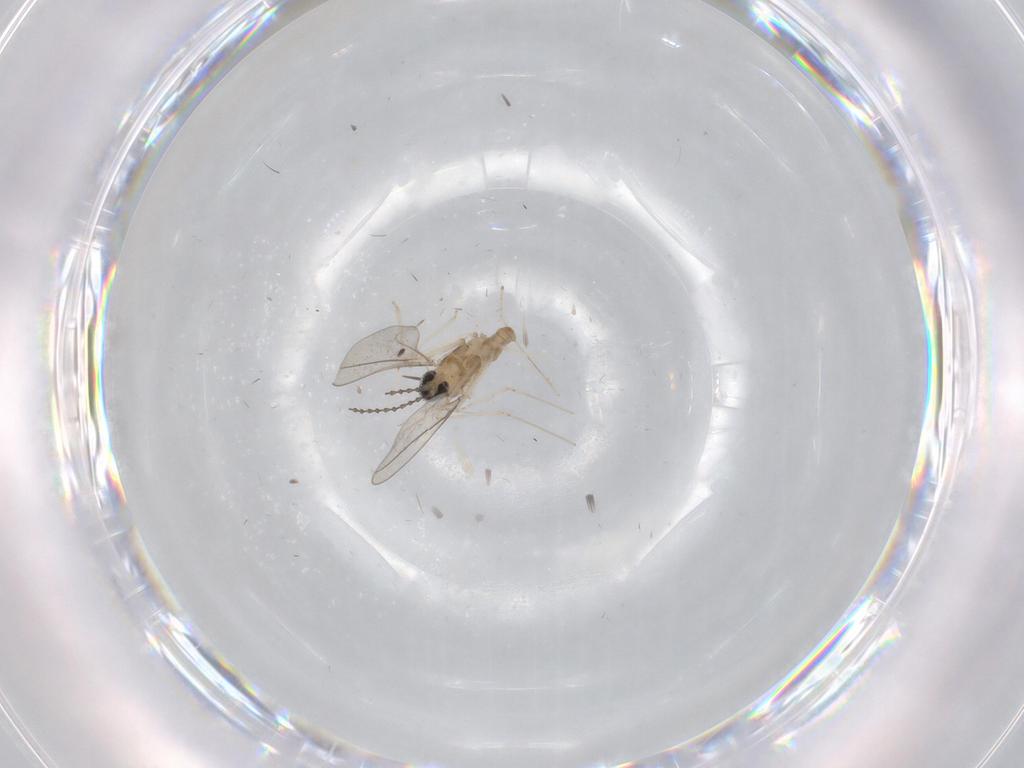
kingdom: Animalia
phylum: Arthropoda
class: Insecta
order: Diptera
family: Cecidomyiidae
